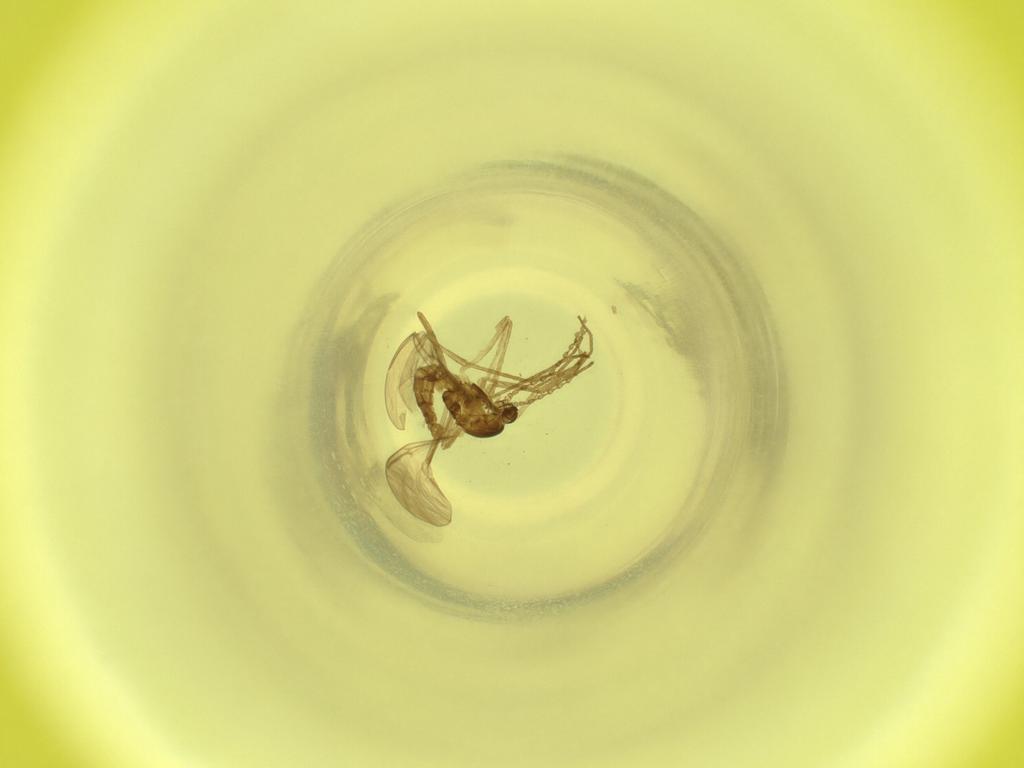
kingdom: Animalia
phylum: Arthropoda
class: Insecta
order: Diptera
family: Cecidomyiidae
